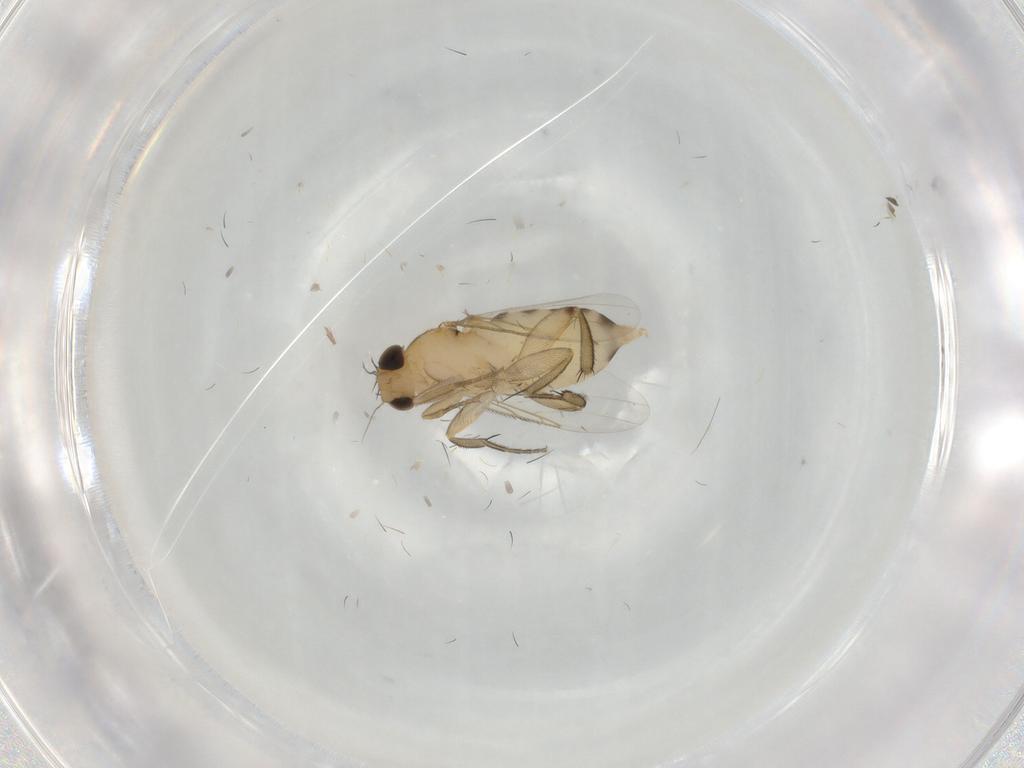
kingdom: Animalia
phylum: Arthropoda
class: Insecta
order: Diptera
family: Phoridae
